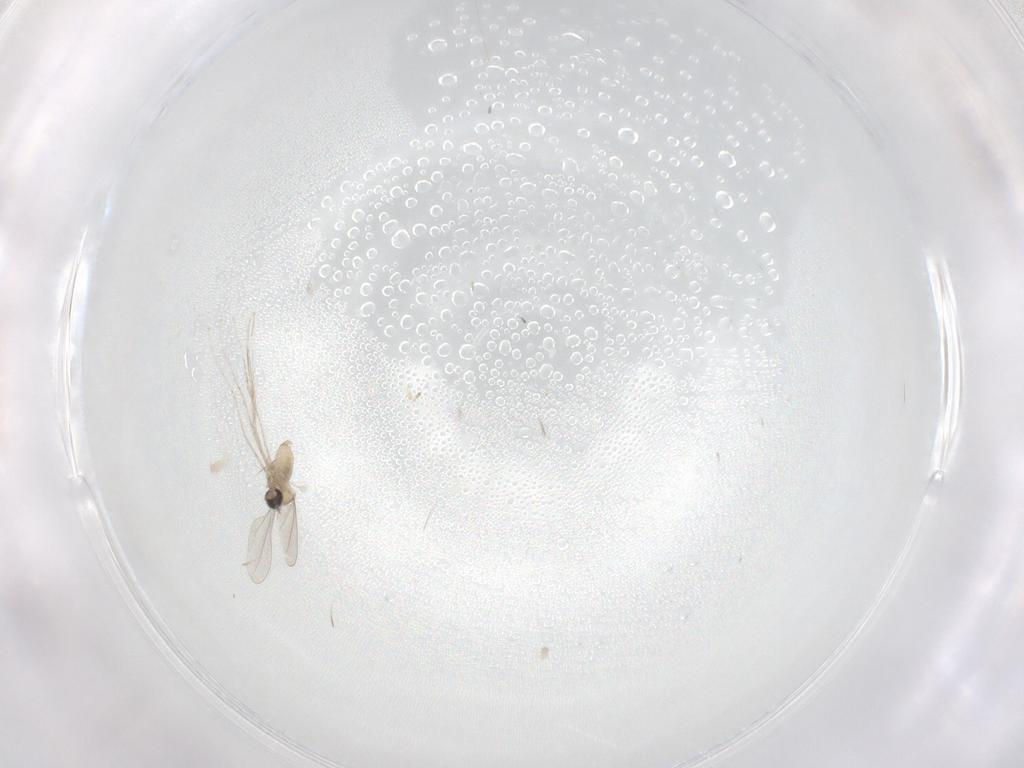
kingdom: Animalia
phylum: Arthropoda
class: Insecta
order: Diptera
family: Cecidomyiidae
